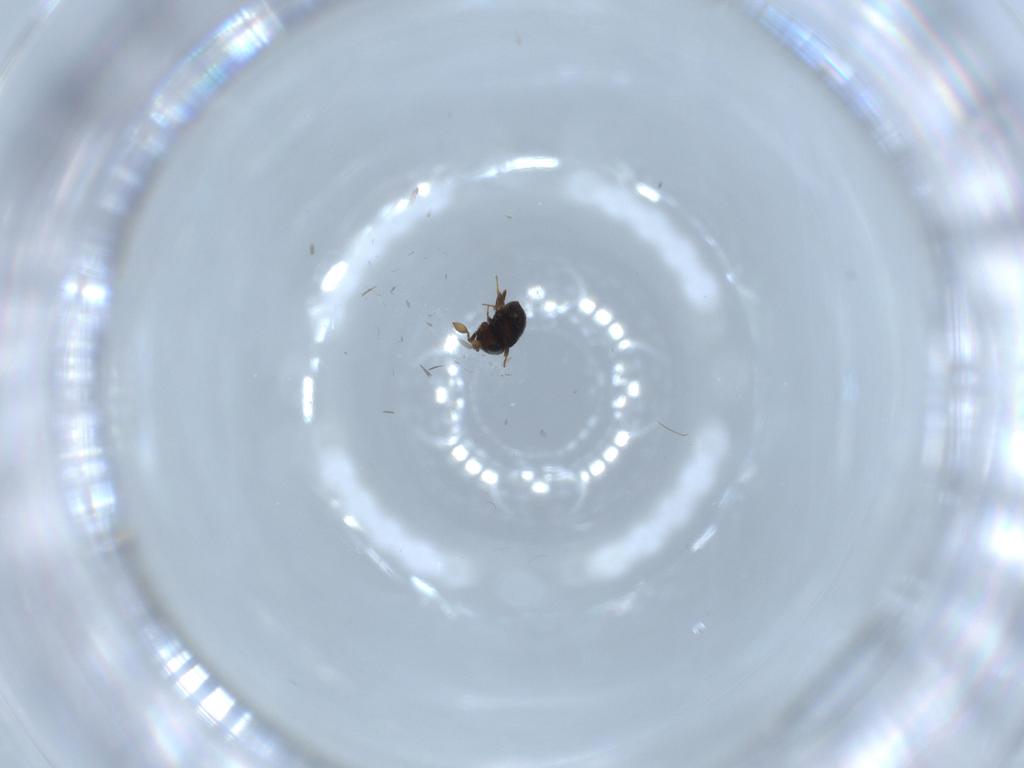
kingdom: Animalia
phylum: Arthropoda
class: Insecta
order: Hymenoptera
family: Scelionidae
